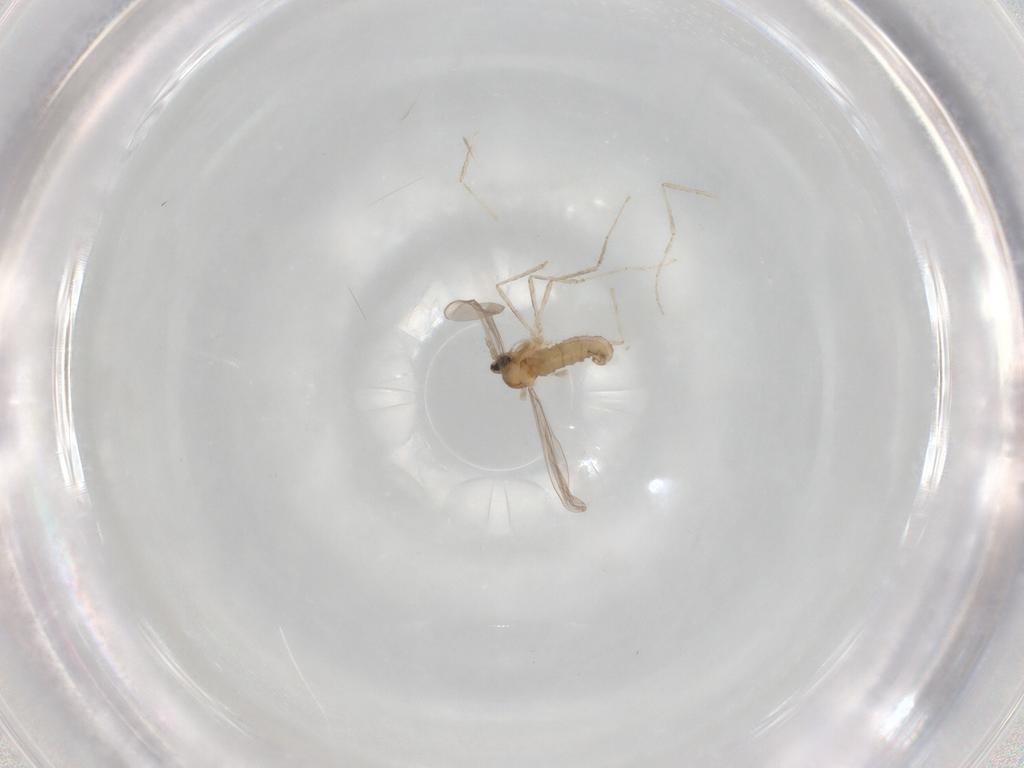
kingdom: Animalia
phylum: Arthropoda
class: Insecta
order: Diptera
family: Cecidomyiidae
